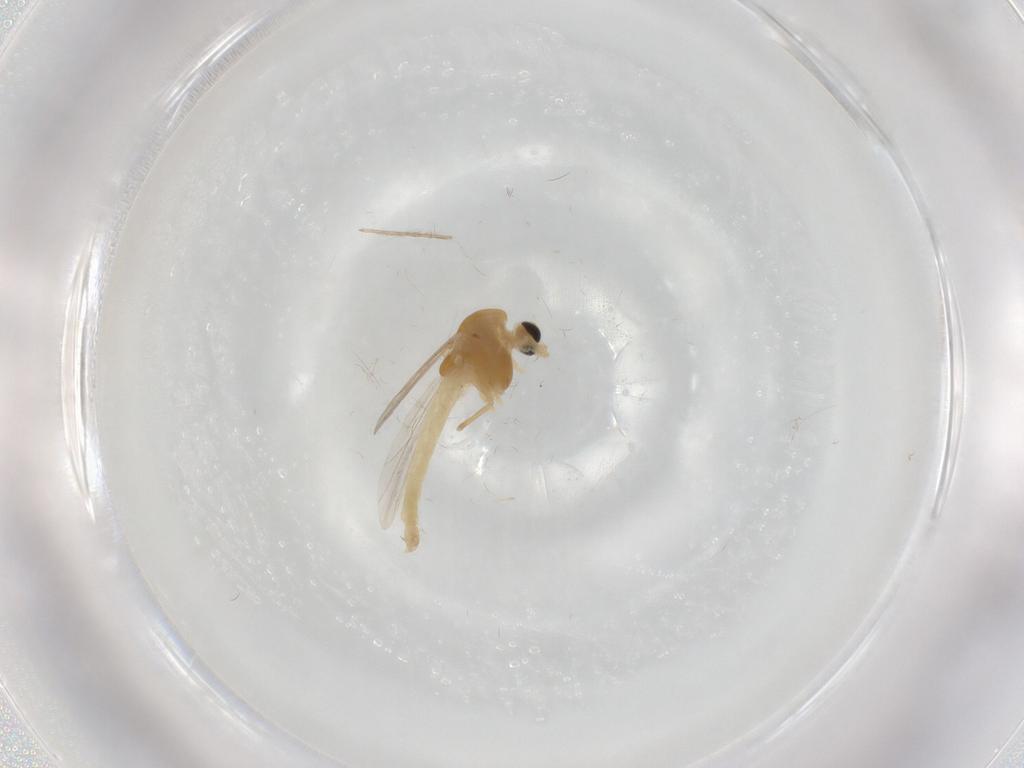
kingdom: Animalia
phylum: Arthropoda
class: Insecta
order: Diptera
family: Chironomidae
